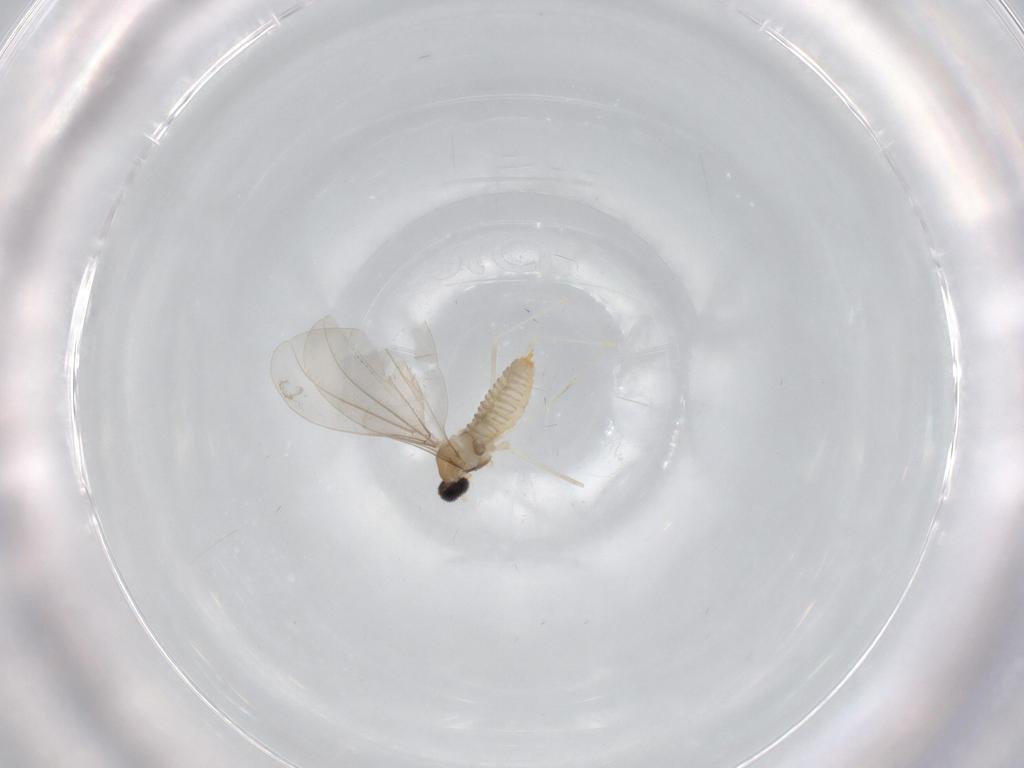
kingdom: Animalia
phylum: Arthropoda
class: Insecta
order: Diptera
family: Cecidomyiidae
